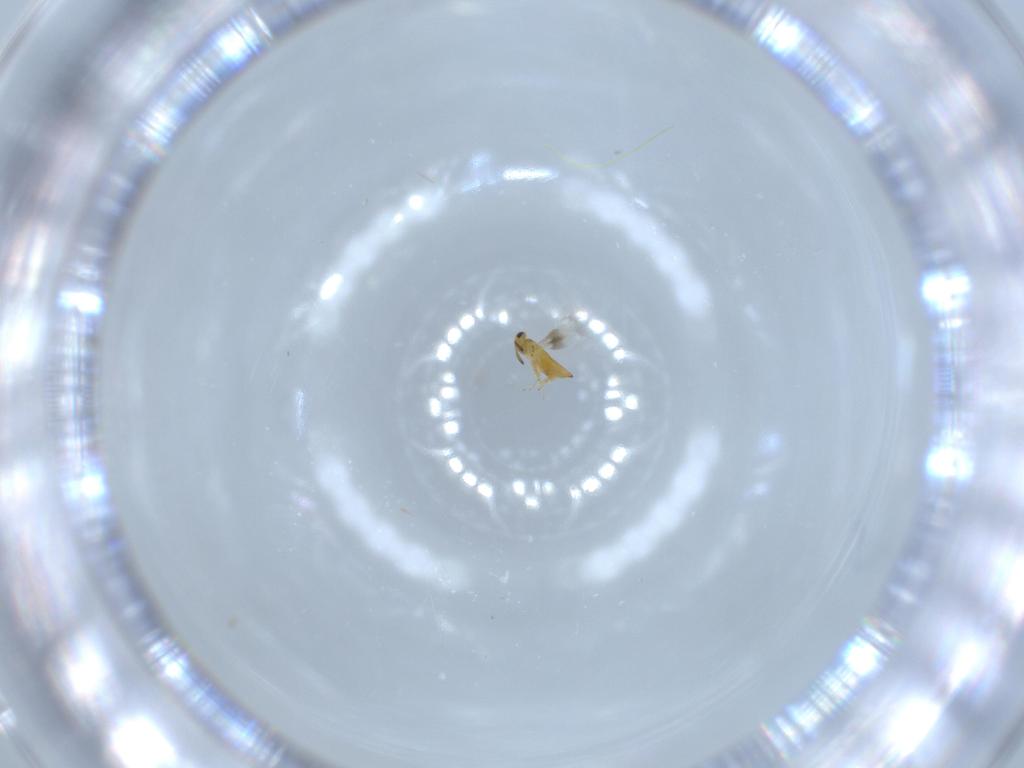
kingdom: Animalia
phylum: Arthropoda
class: Insecta
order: Hymenoptera
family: Signiphoridae
